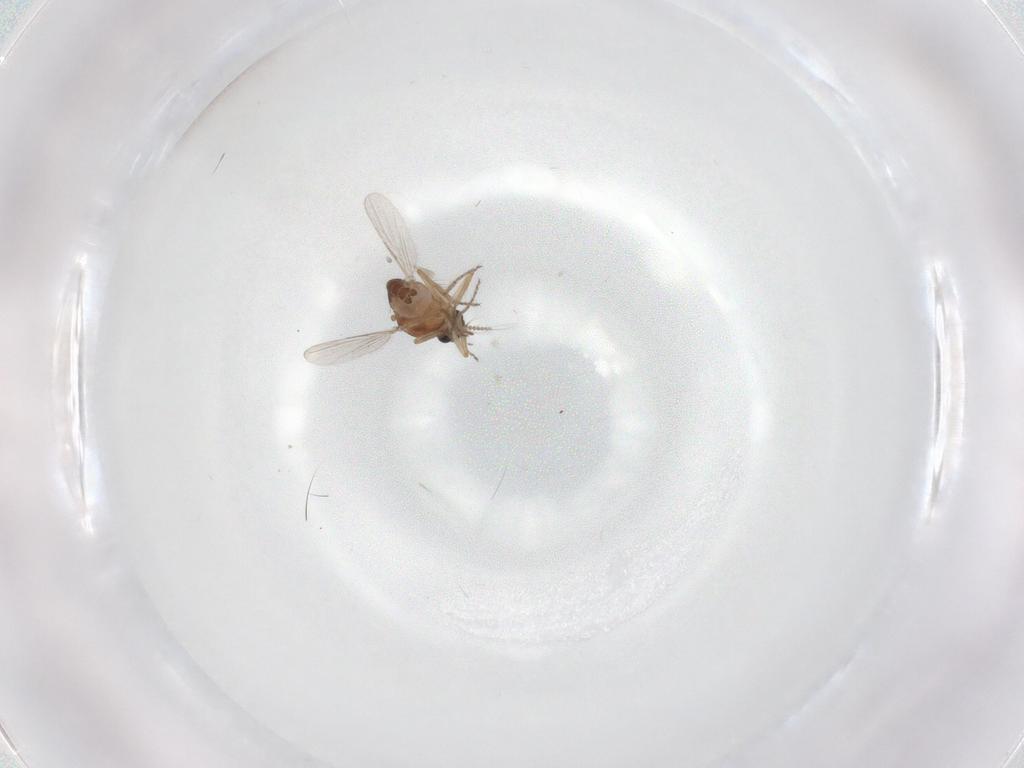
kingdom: Animalia
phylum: Arthropoda
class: Insecta
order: Diptera
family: Ceratopogonidae
